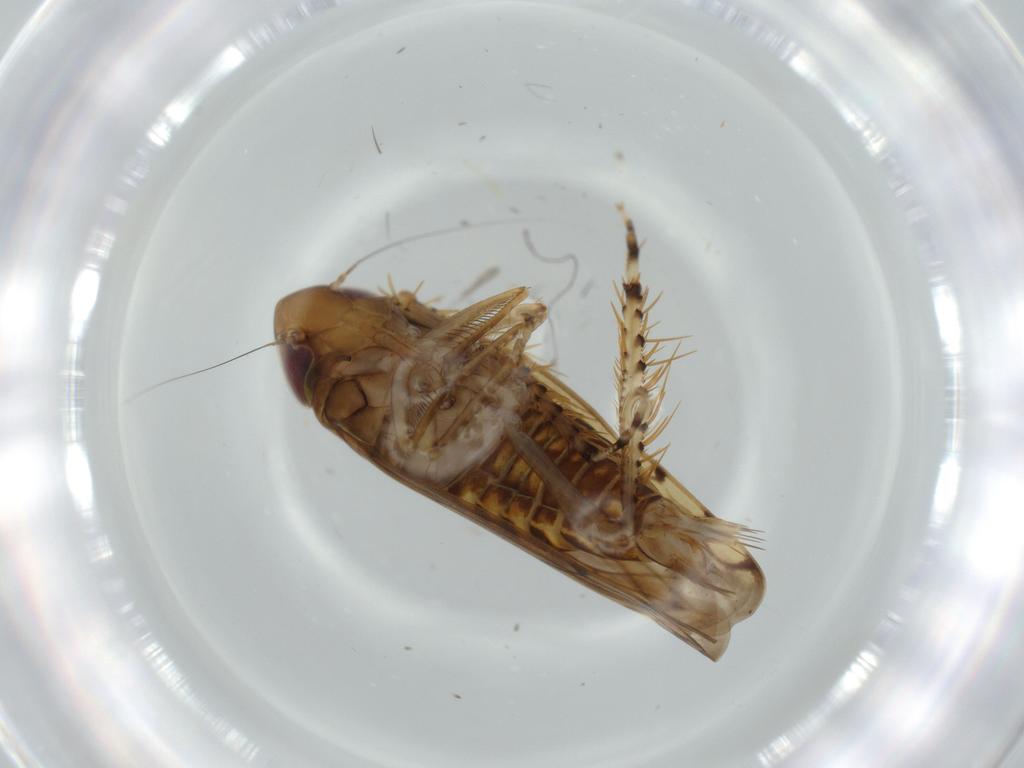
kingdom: Animalia
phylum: Arthropoda
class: Insecta
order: Hemiptera
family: Cicadellidae
